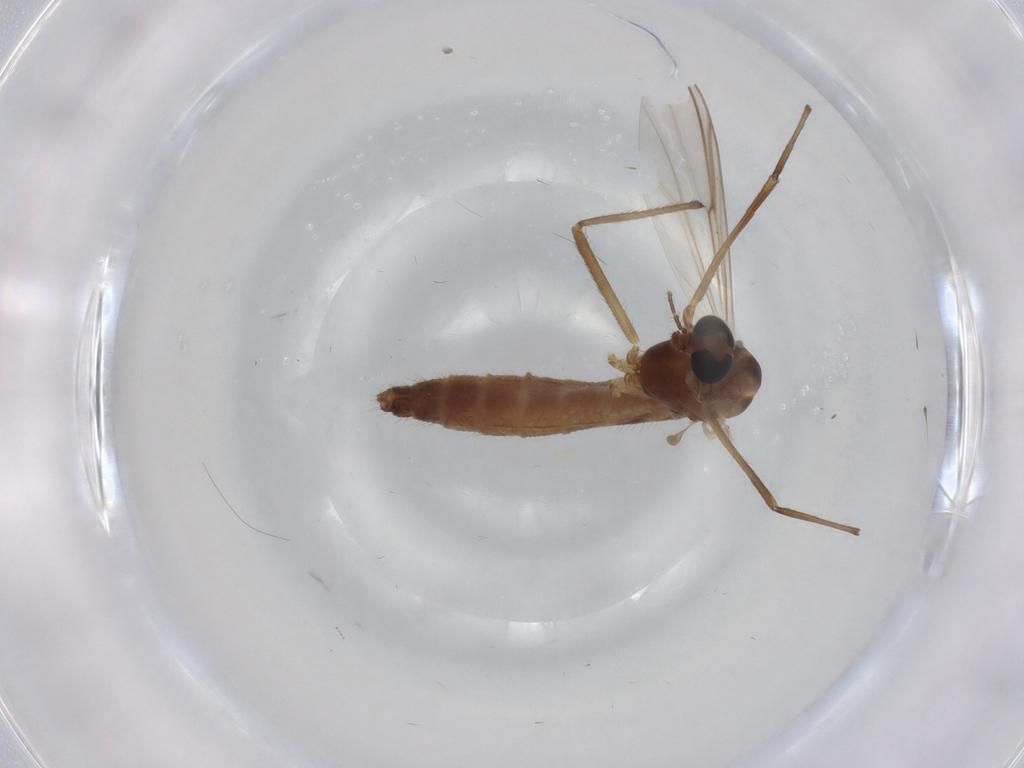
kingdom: Animalia
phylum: Arthropoda
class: Insecta
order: Diptera
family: Chironomidae
